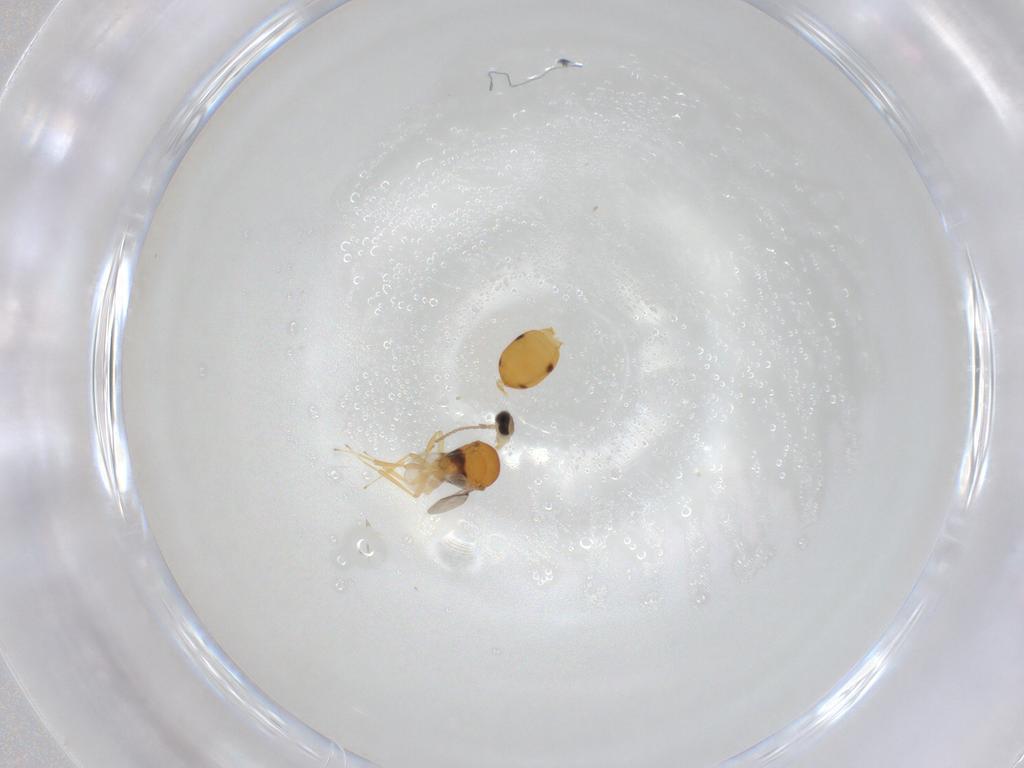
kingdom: Animalia
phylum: Arthropoda
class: Insecta
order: Hymenoptera
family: Scelionidae
